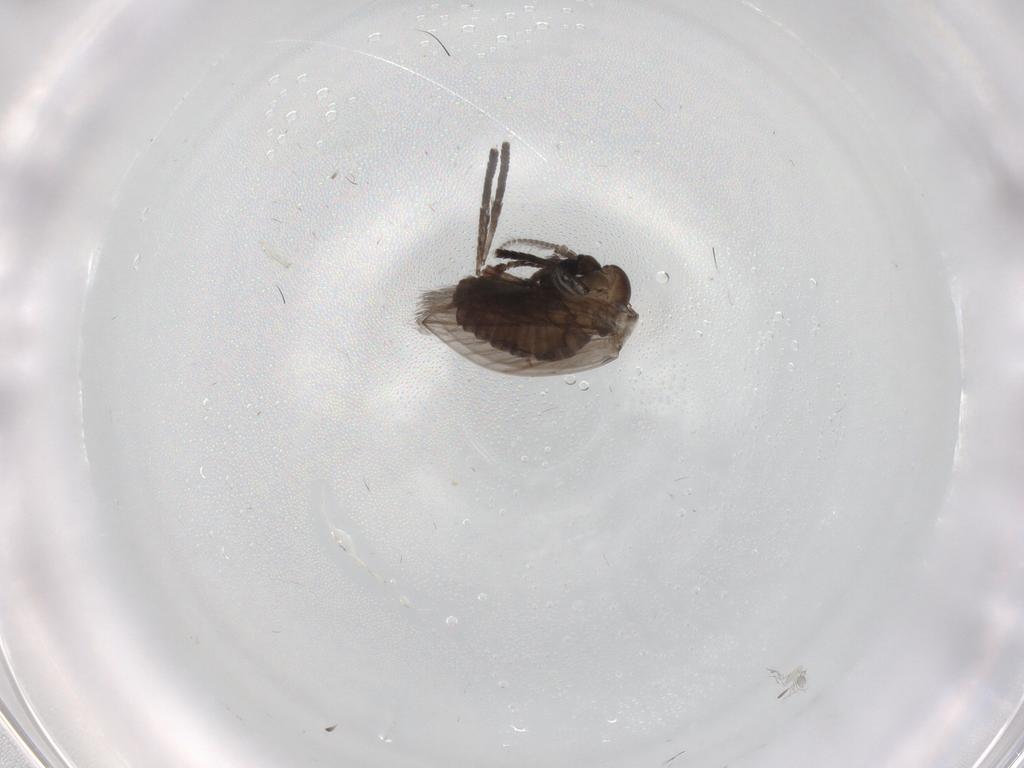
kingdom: Animalia
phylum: Arthropoda
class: Insecta
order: Diptera
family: Psychodidae
